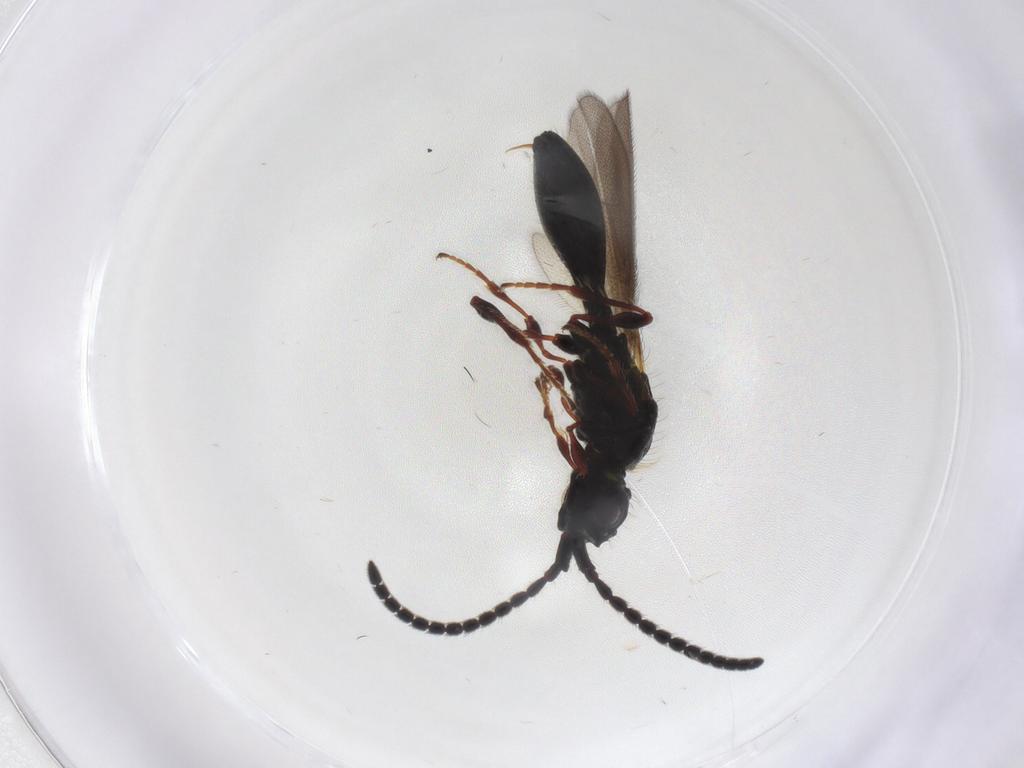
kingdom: Animalia
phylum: Arthropoda
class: Insecta
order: Hymenoptera
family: Diapriidae
